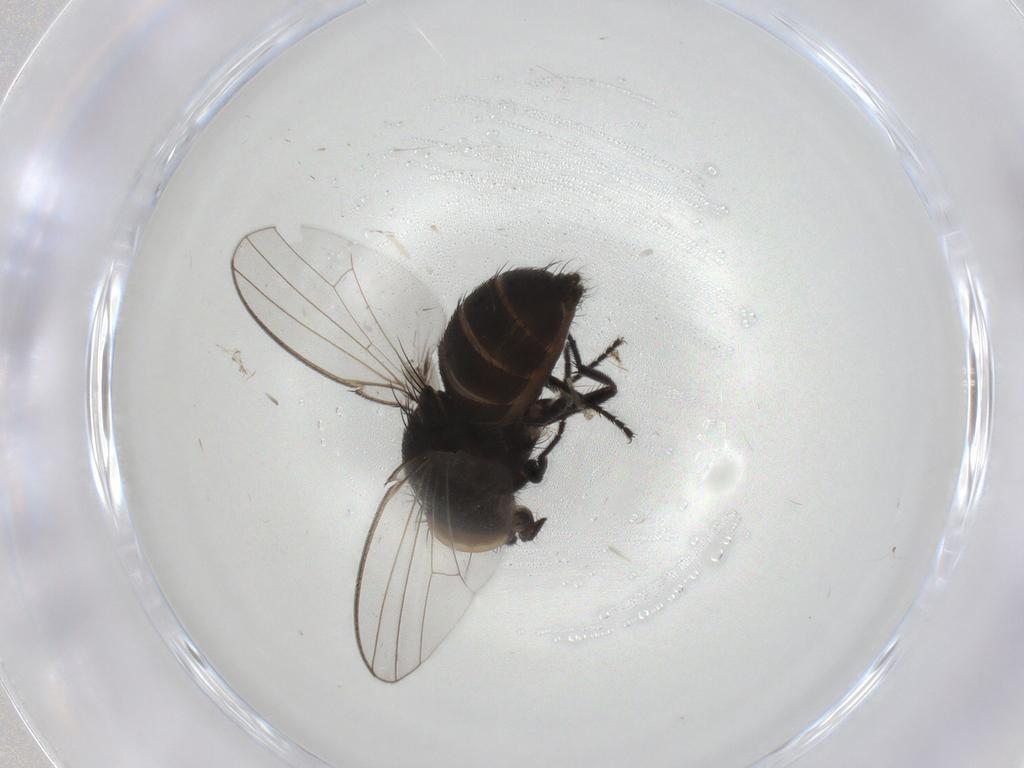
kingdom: Animalia
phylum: Arthropoda
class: Insecta
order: Diptera
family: Milichiidae
